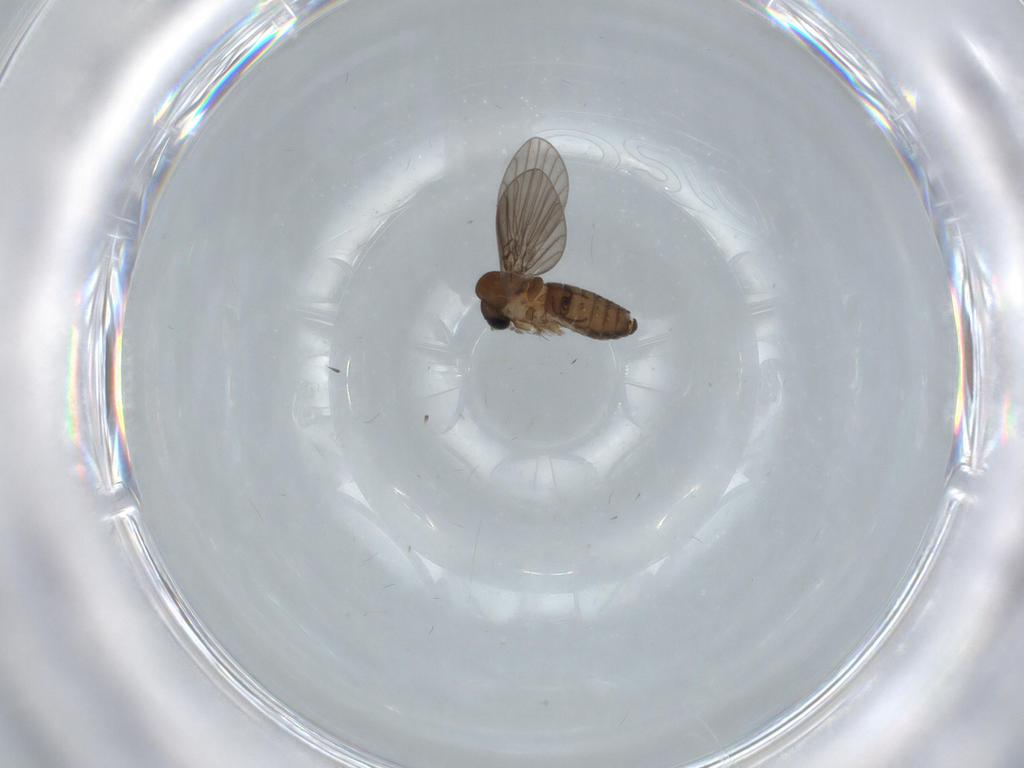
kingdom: Animalia
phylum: Arthropoda
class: Insecta
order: Diptera
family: Psychodidae
